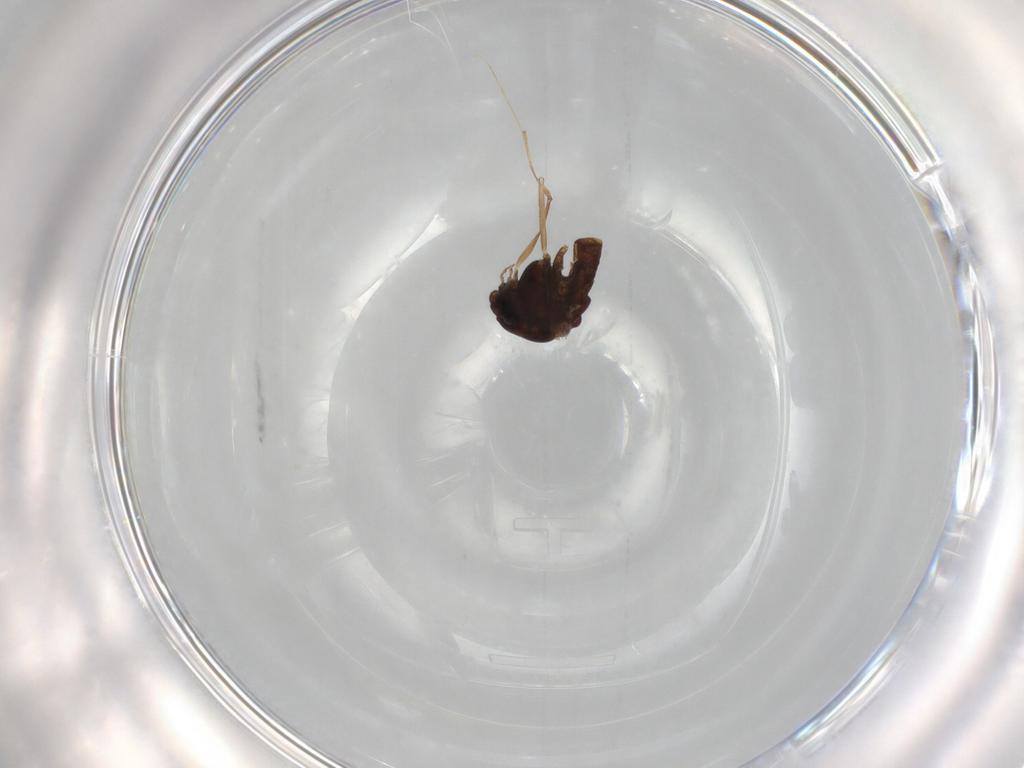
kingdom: Animalia
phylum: Arthropoda
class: Insecta
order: Diptera
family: Chironomidae
